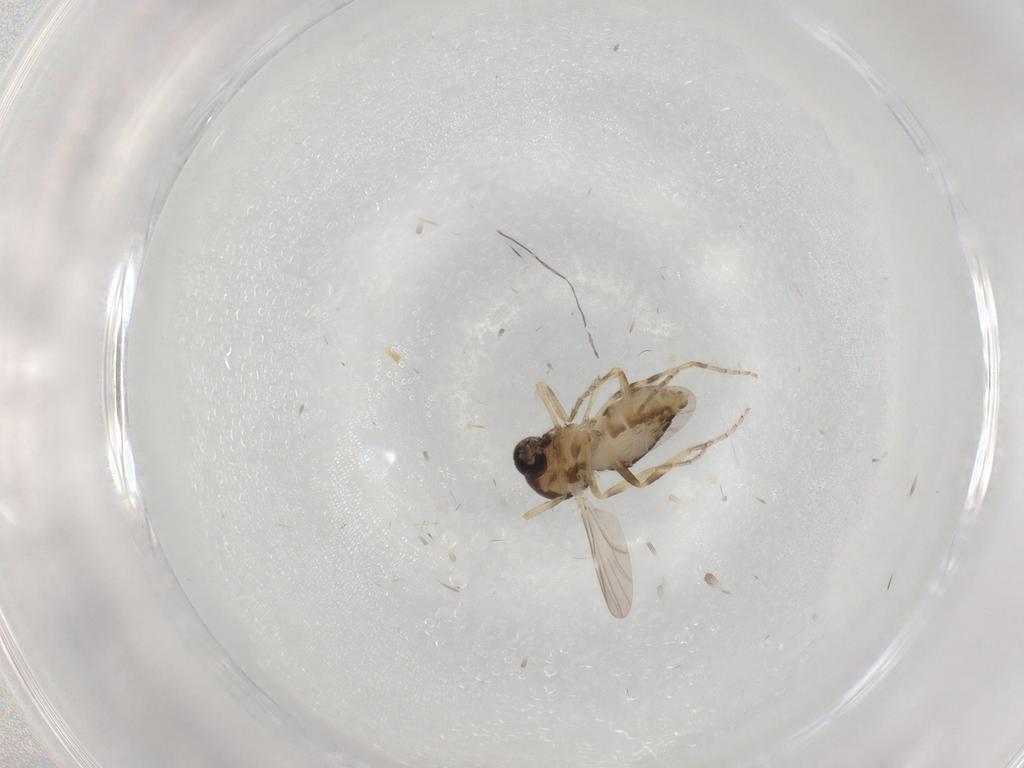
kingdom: Animalia
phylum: Arthropoda
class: Insecta
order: Diptera
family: Ceratopogonidae
